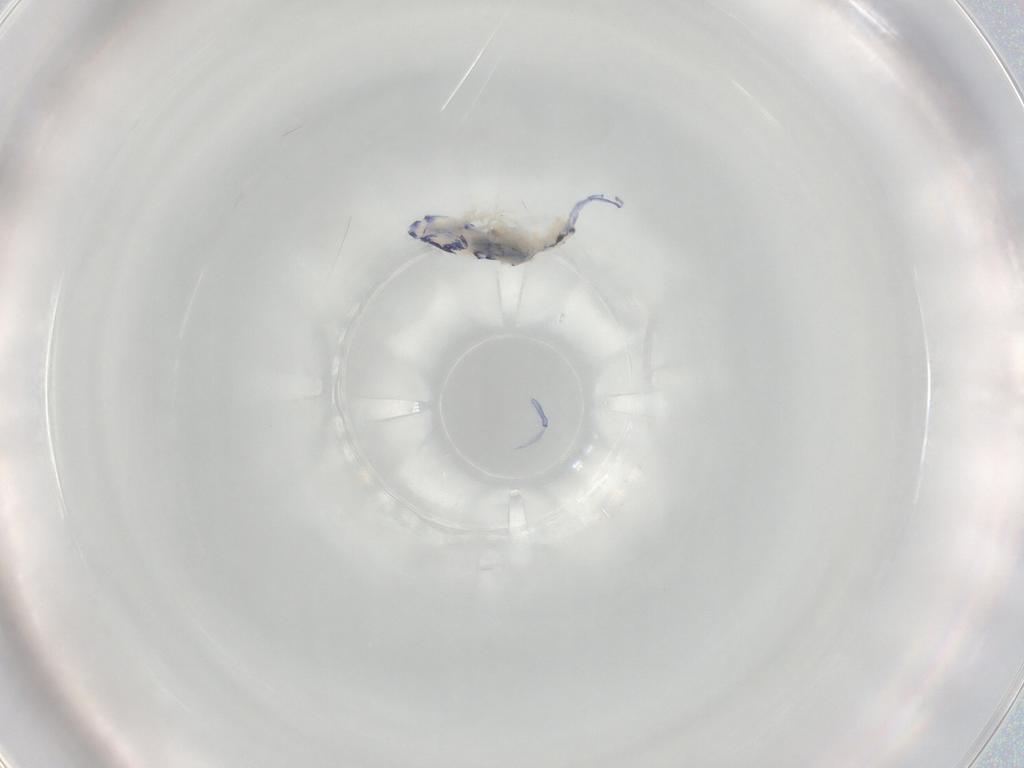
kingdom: Animalia
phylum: Arthropoda
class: Collembola
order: Entomobryomorpha
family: Entomobryidae
